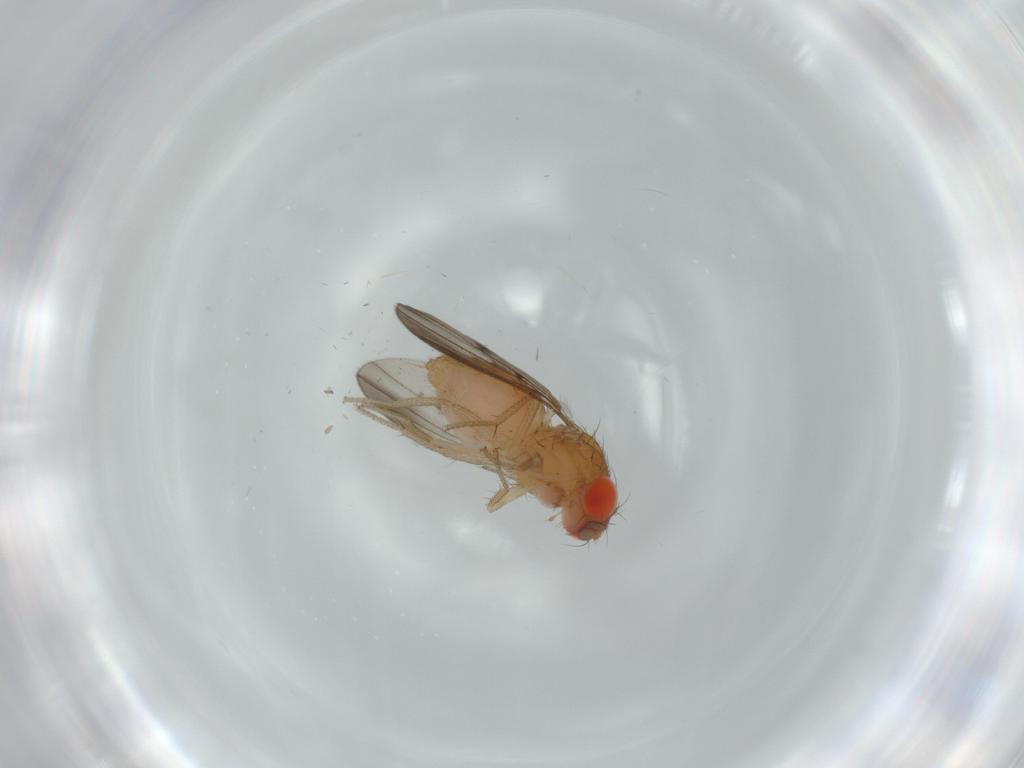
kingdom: Animalia
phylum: Arthropoda
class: Insecta
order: Diptera
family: Drosophilidae
